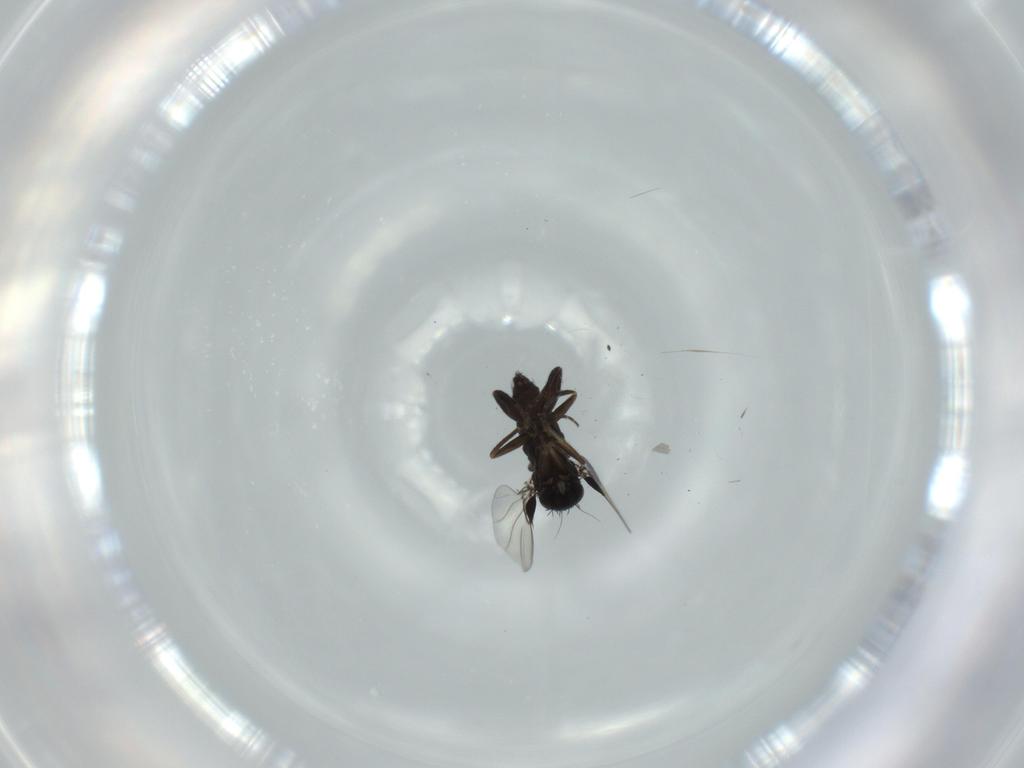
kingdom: Animalia
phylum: Arthropoda
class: Insecta
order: Diptera
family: Phoridae
